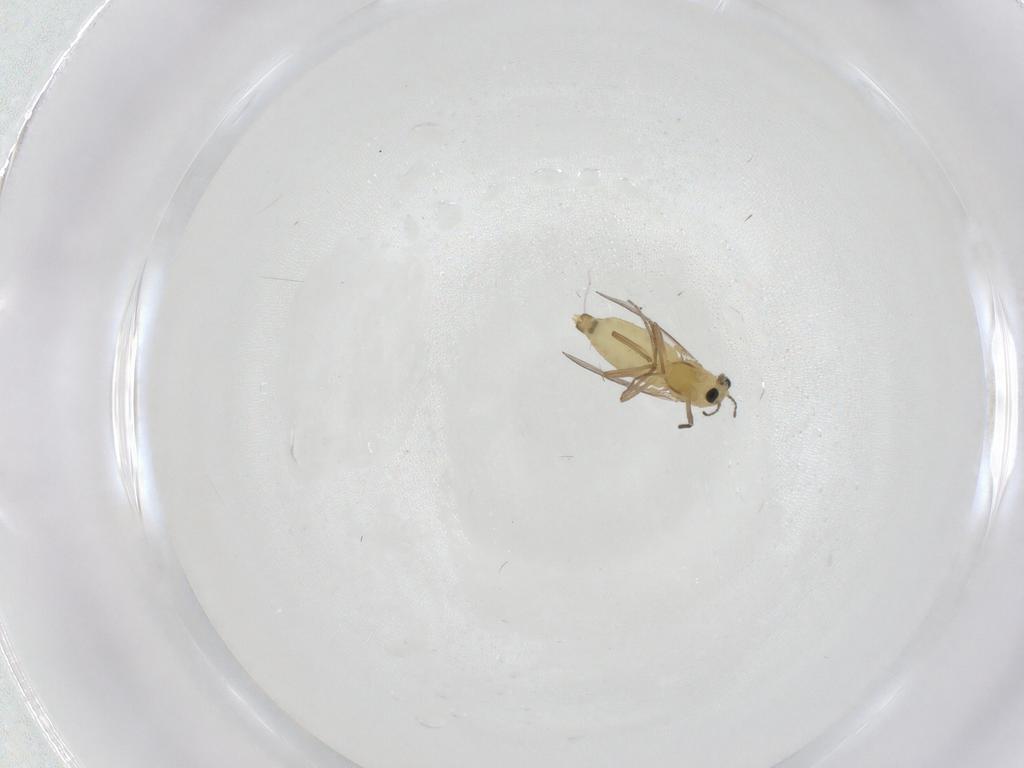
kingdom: Animalia
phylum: Arthropoda
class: Insecta
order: Diptera
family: Chironomidae
